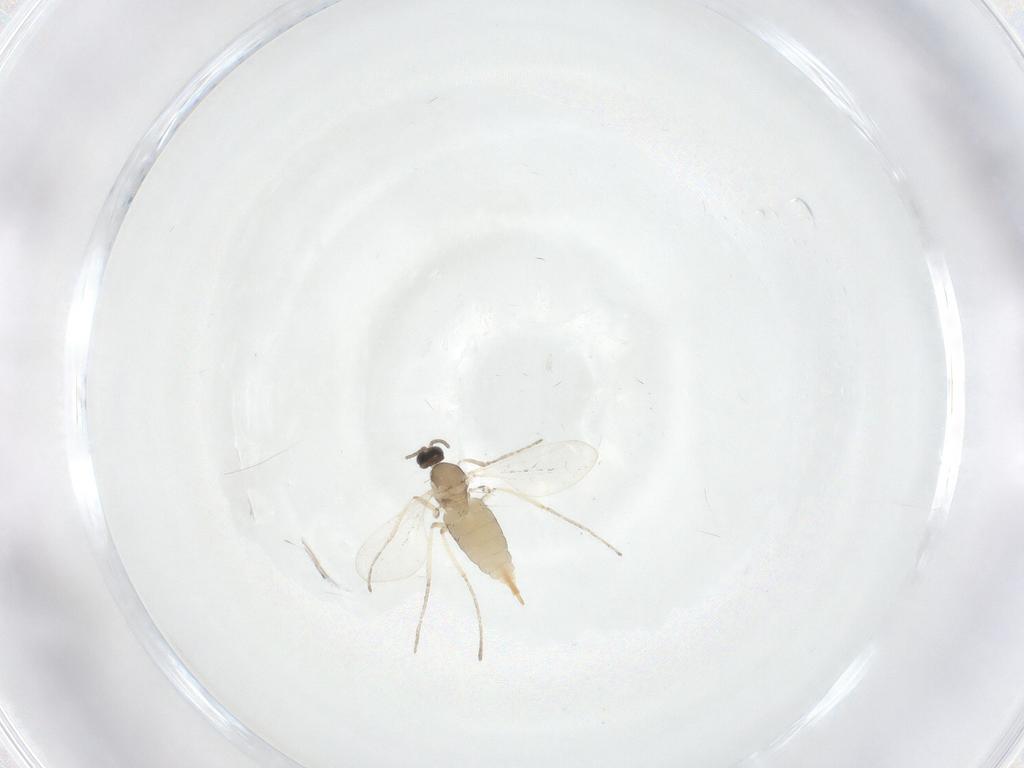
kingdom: Animalia
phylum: Arthropoda
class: Insecta
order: Diptera
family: Cecidomyiidae
